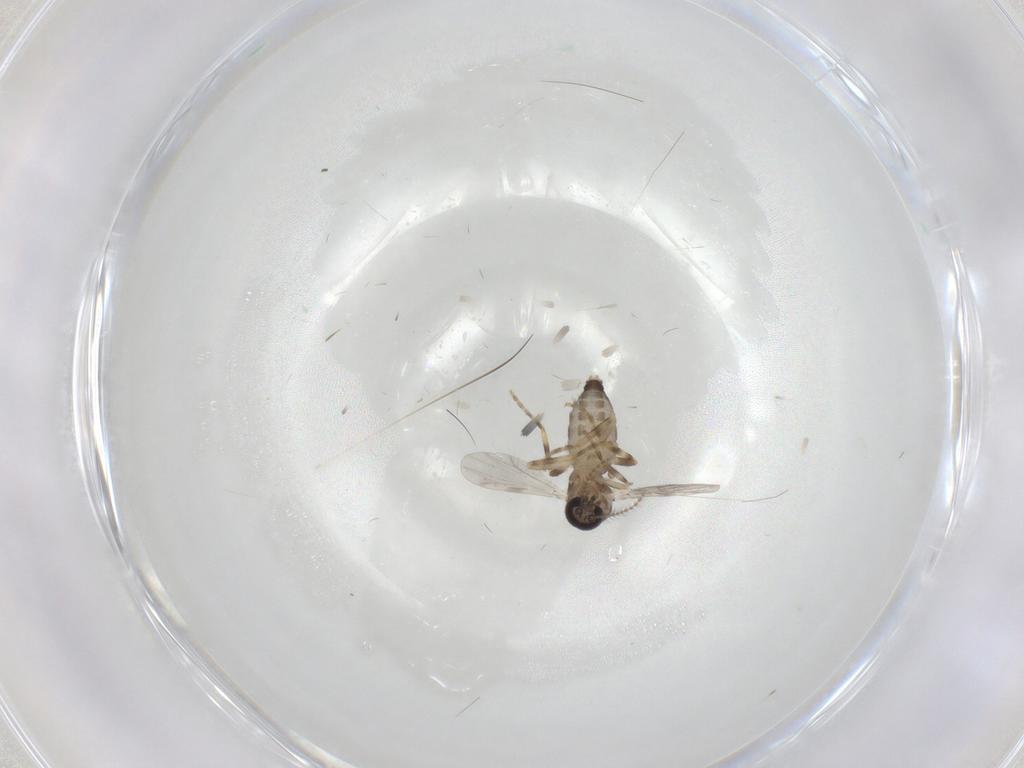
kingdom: Animalia
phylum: Arthropoda
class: Insecta
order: Diptera
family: Ceratopogonidae
